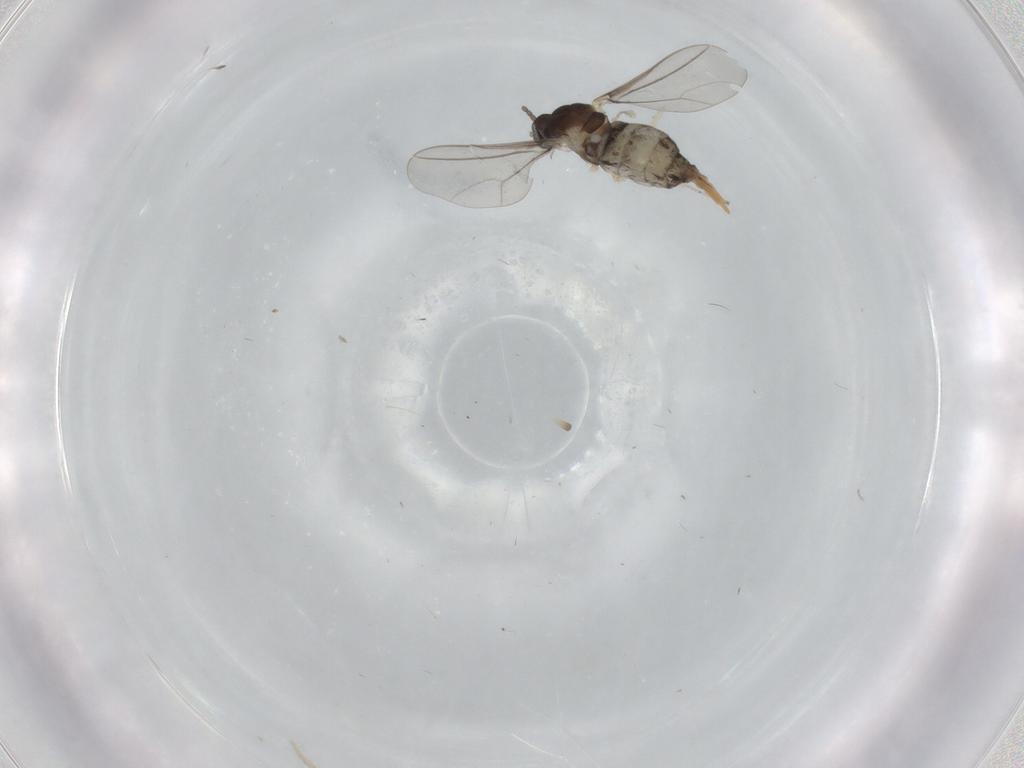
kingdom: Animalia
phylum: Arthropoda
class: Insecta
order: Diptera
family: Cecidomyiidae
